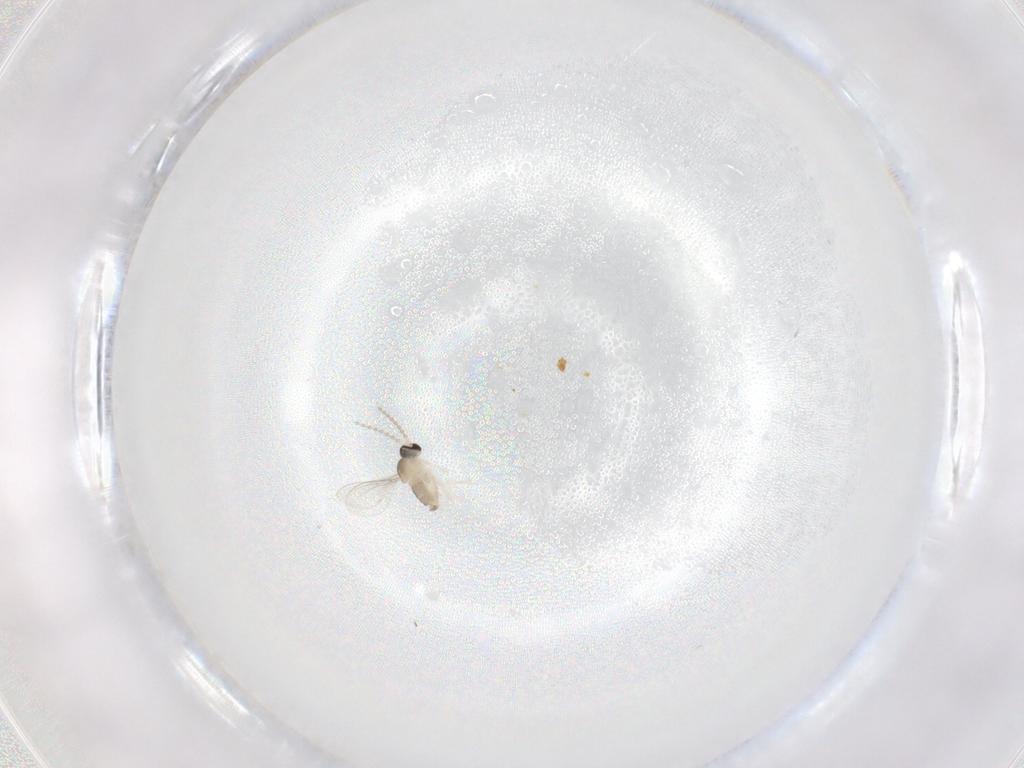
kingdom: Animalia
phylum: Arthropoda
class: Insecta
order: Diptera
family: Cecidomyiidae
